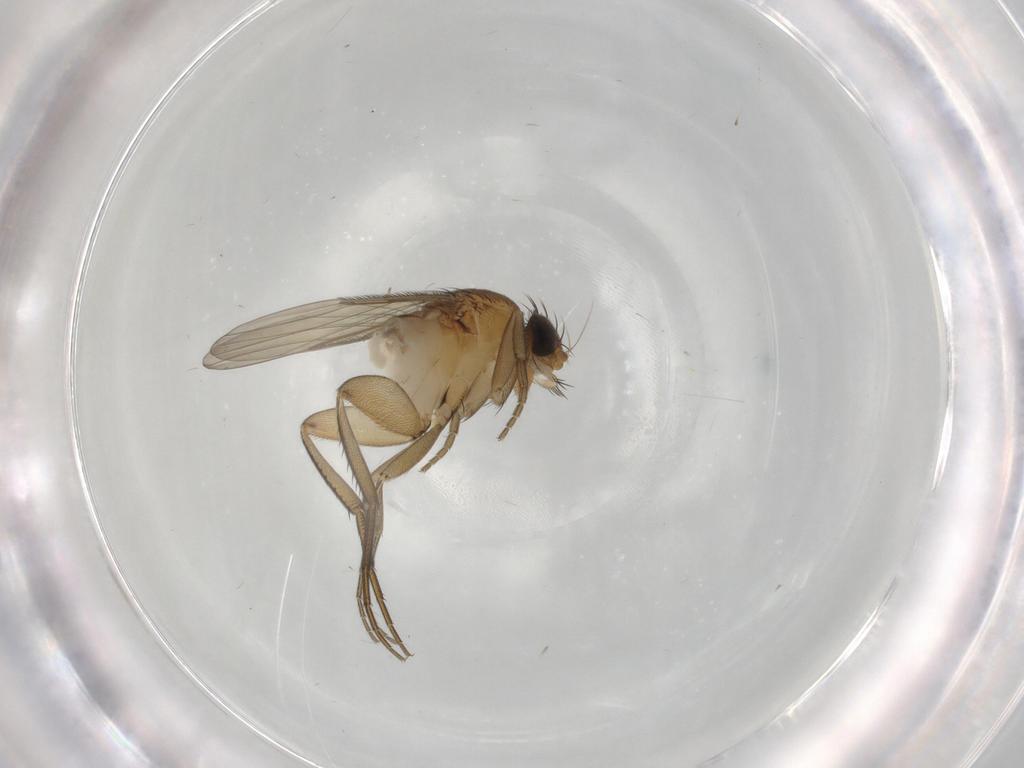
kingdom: Animalia
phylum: Arthropoda
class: Insecta
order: Diptera
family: Phoridae
